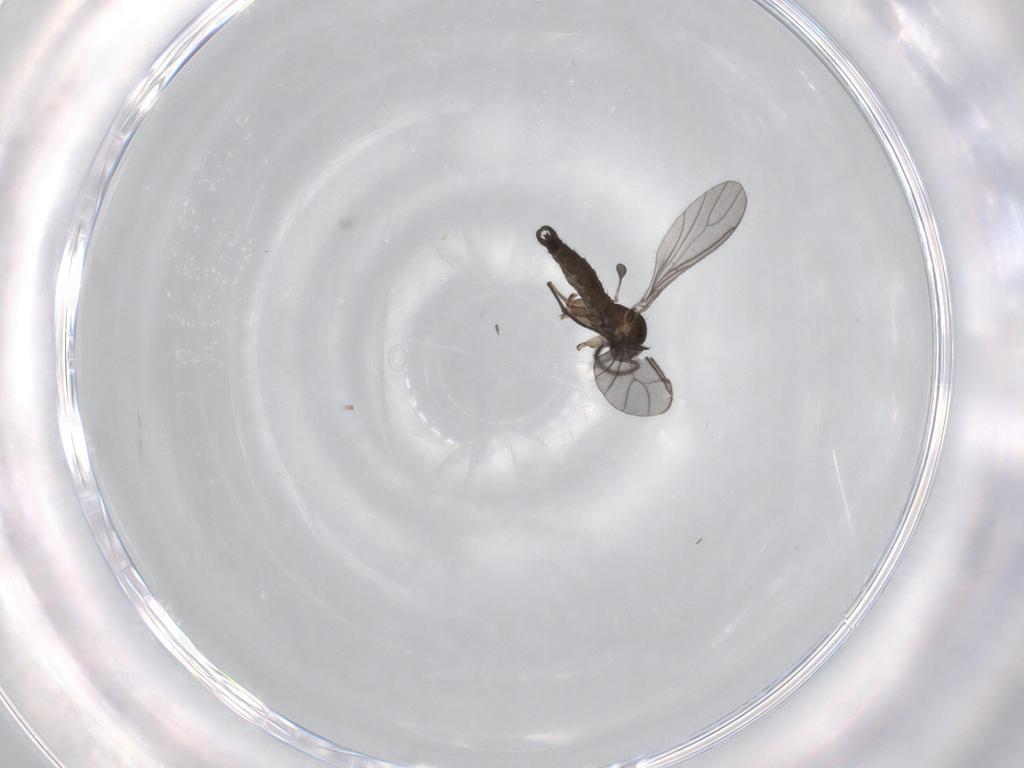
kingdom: Animalia
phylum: Arthropoda
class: Insecta
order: Diptera
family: Sciaridae
